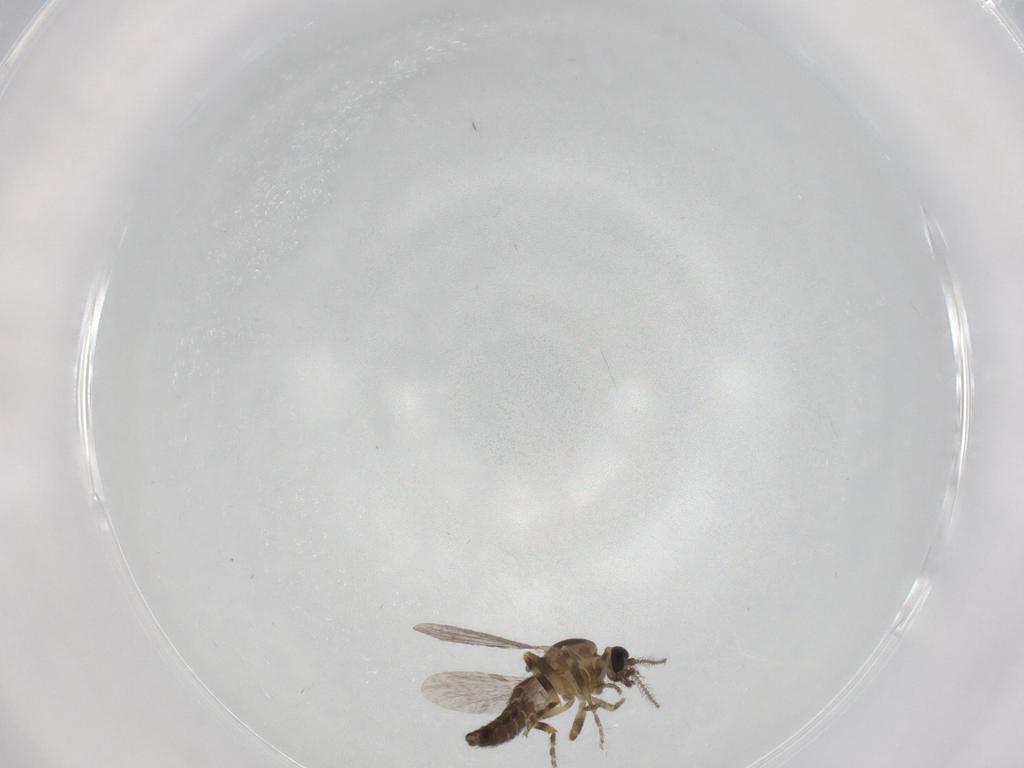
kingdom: Animalia
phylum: Arthropoda
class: Insecta
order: Diptera
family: Ceratopogonidae
